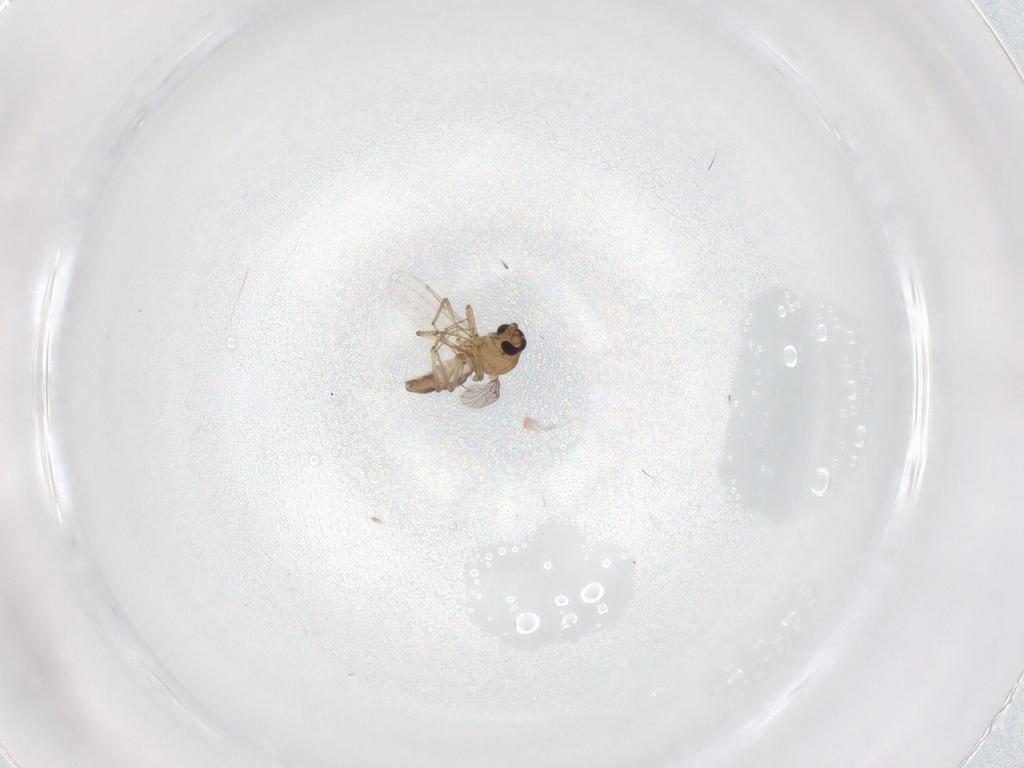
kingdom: Animalia
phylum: Arthropoda
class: Insecta
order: Diptera
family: Ceratopogonidae
